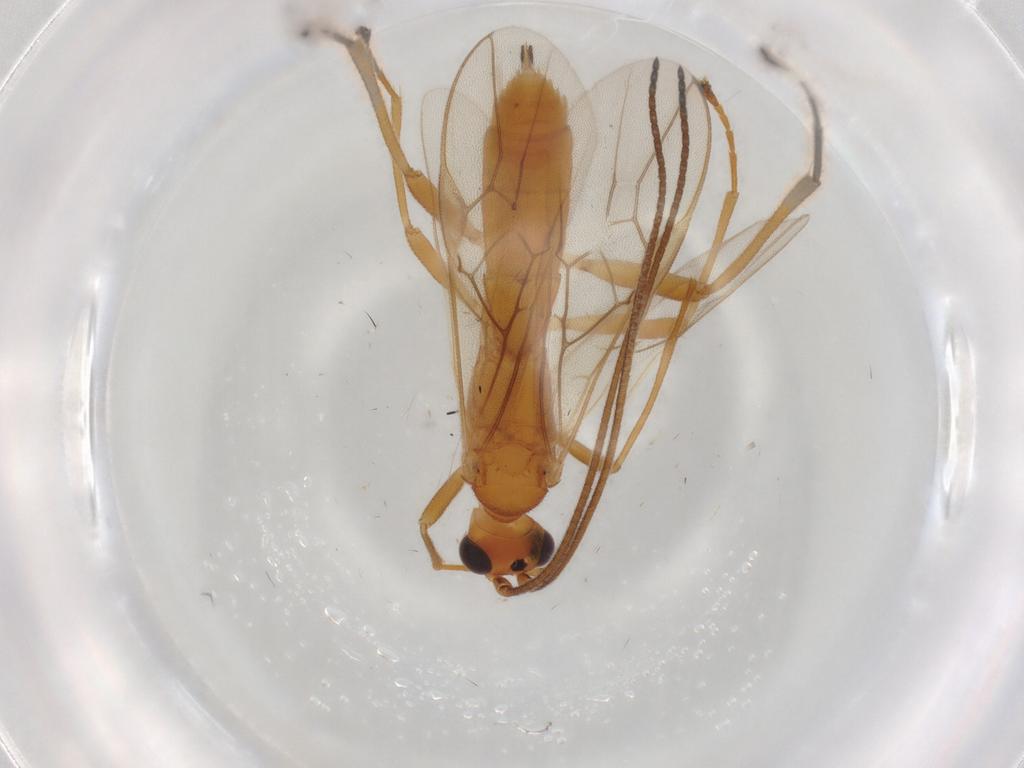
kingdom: Animalia
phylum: Arthropoda
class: Insecta
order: Hymenoptera
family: Braconidae
